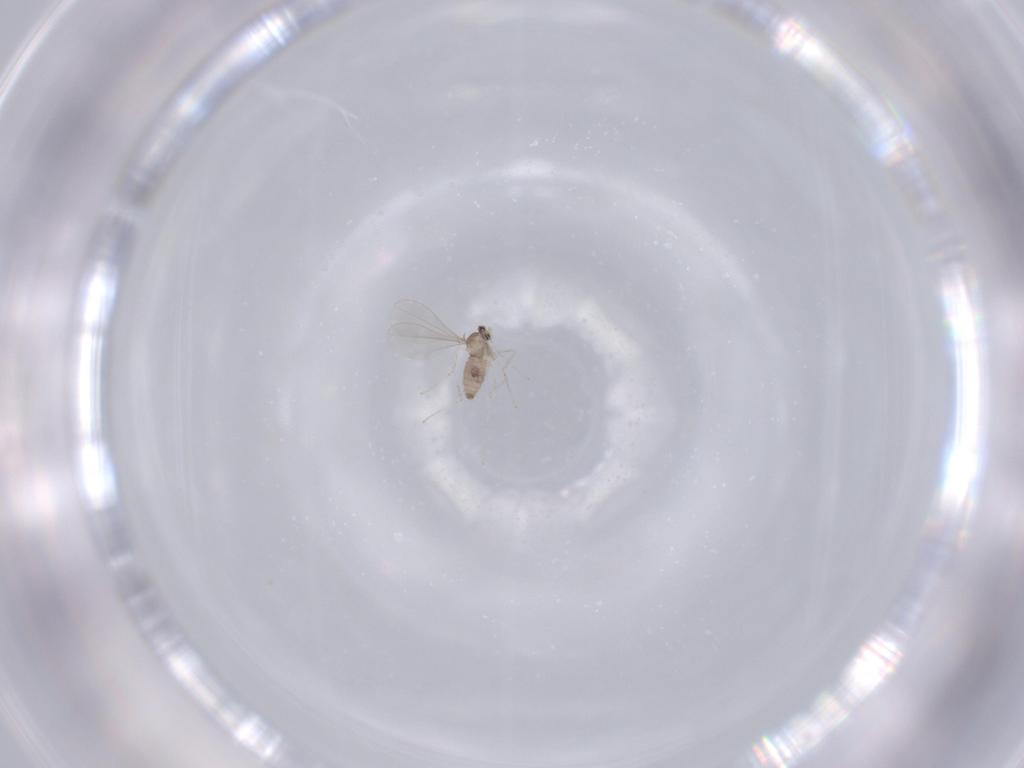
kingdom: Animalia
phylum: Arthropoda
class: Insecta
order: Diptera
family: Cecidomyiidae
